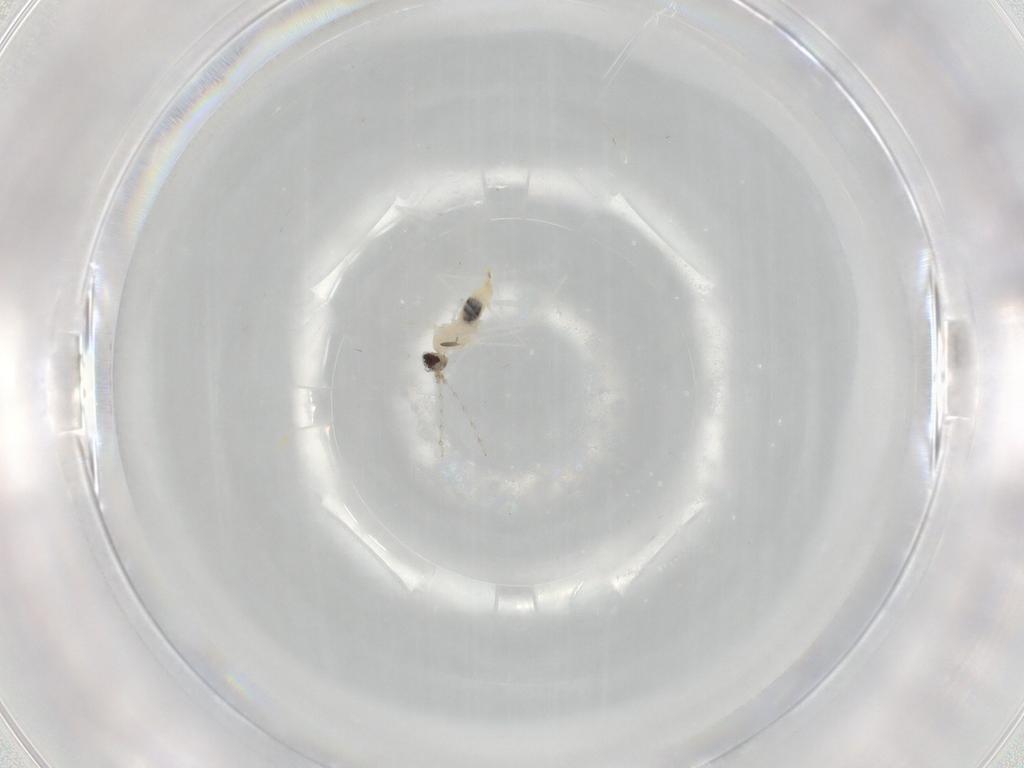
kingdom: Animalia
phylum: Arthropoda
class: Insecta
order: Diptera
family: Cecidomyiidae
